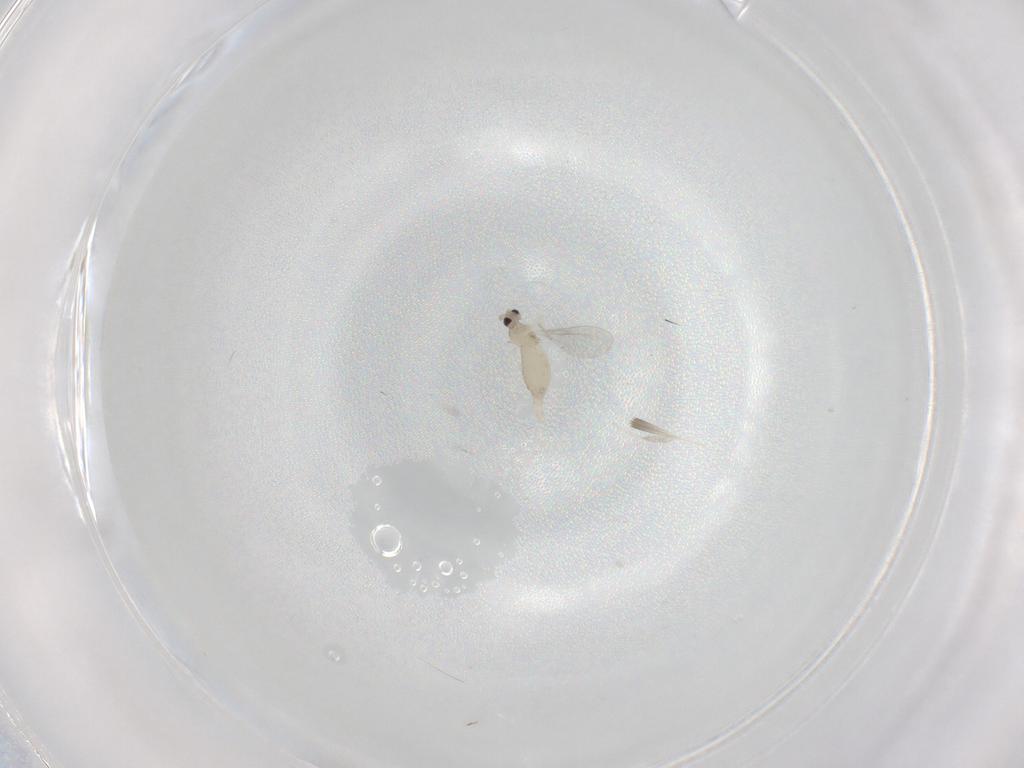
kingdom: Animalia
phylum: Arthropoda
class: Insecta
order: Diptera
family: Cecidomyiidae
